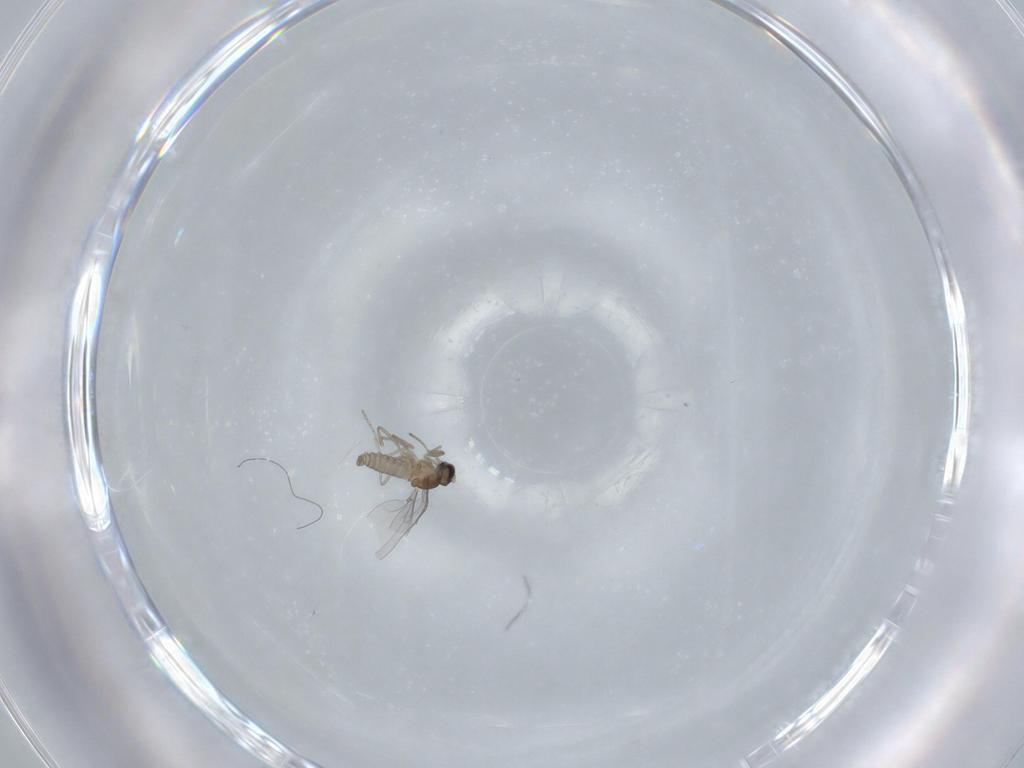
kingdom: Animalia
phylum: Arthropoda
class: Insecta
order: Diptera
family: Cecidomyiidae
